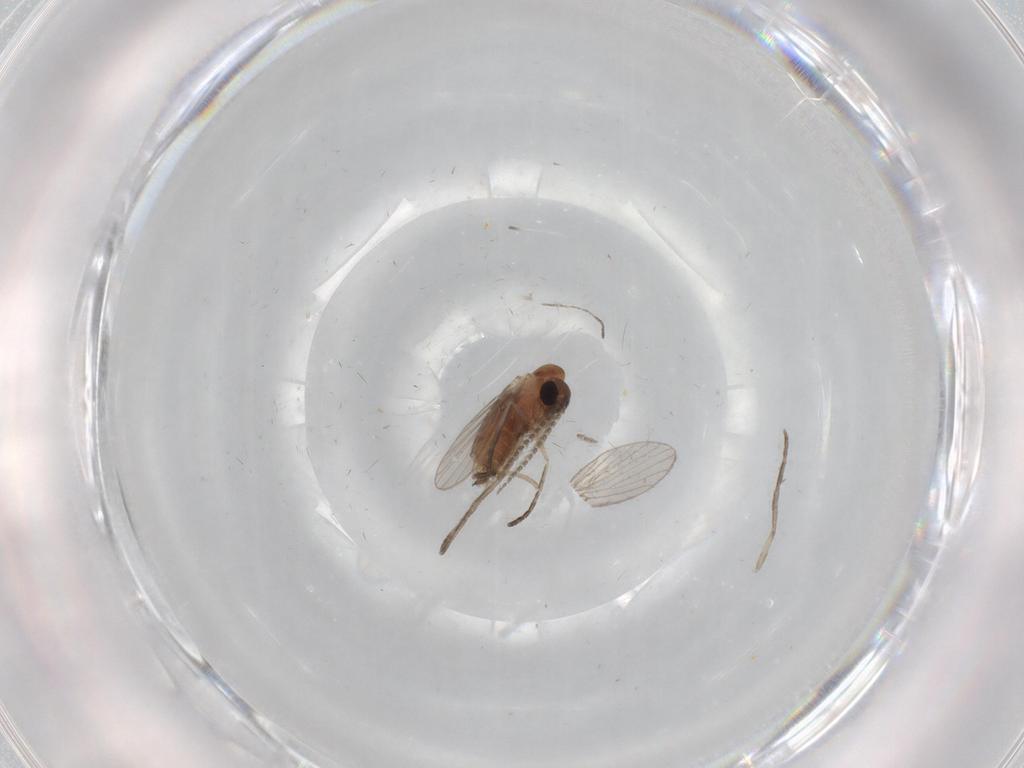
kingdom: Animalia
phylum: Arthropoda
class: Insecta
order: Diptera
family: Cecidomyiidae
